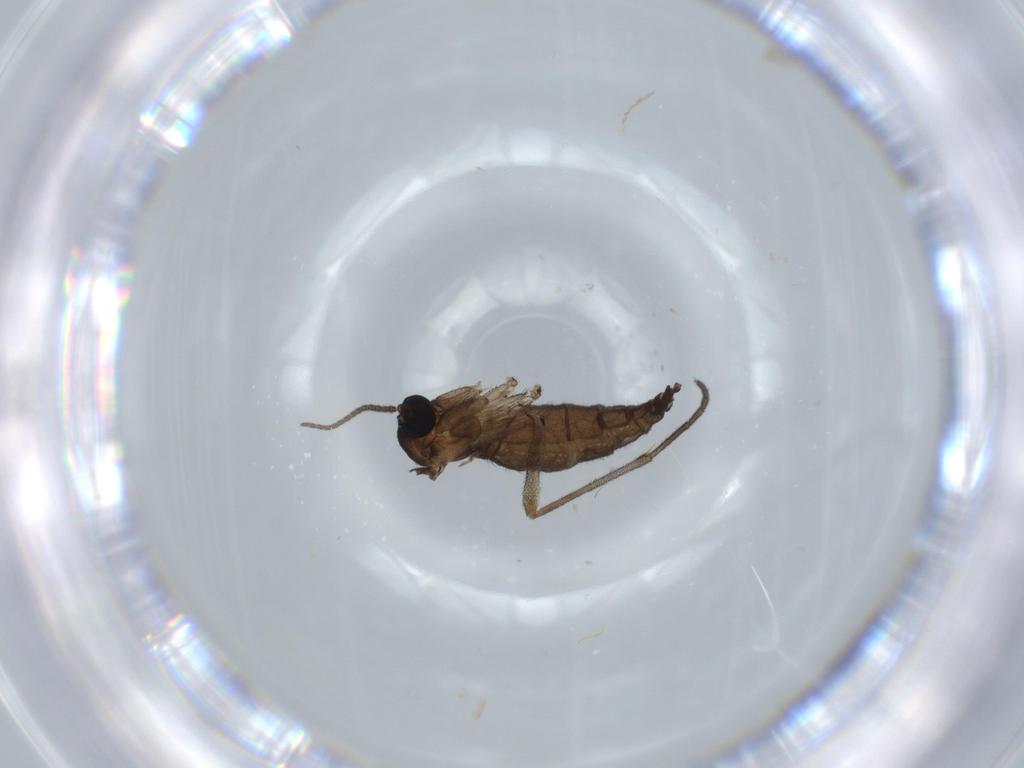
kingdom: Animalia
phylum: Arthropoda
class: Insecta
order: Diptera
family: Sciaridae
